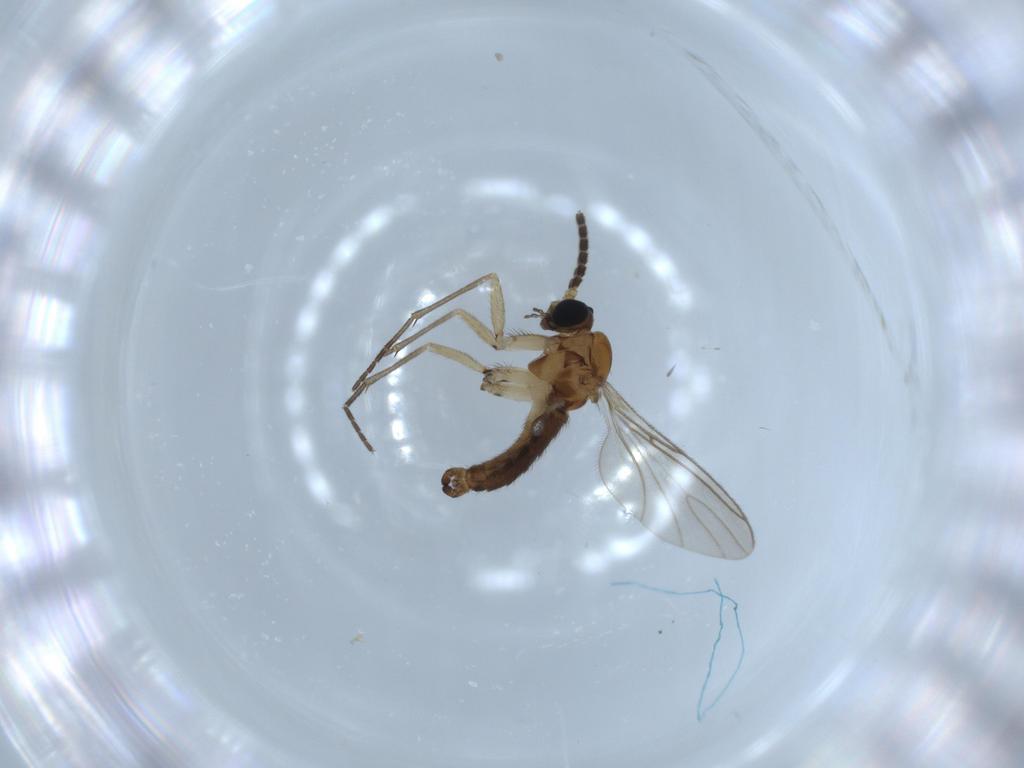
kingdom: Animalia
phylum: Arthropoda
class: Insecta
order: Diptera
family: Sciaridae
